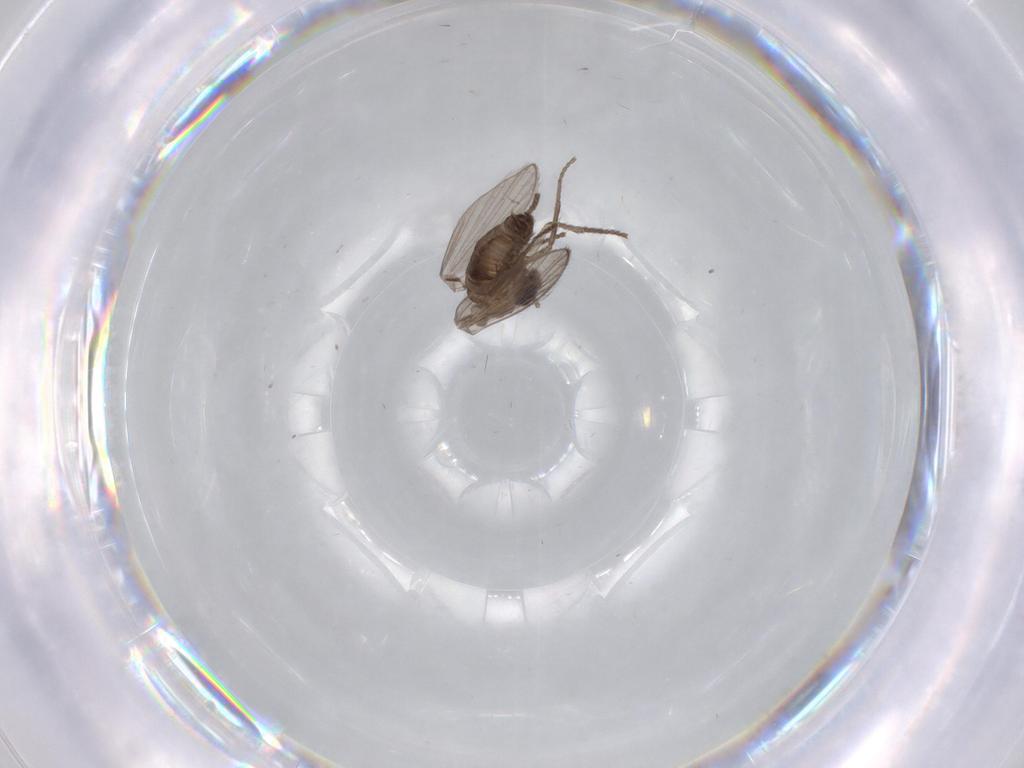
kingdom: Animalia
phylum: Arthropoda
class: Insecta
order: Diptera
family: Psychodidae
